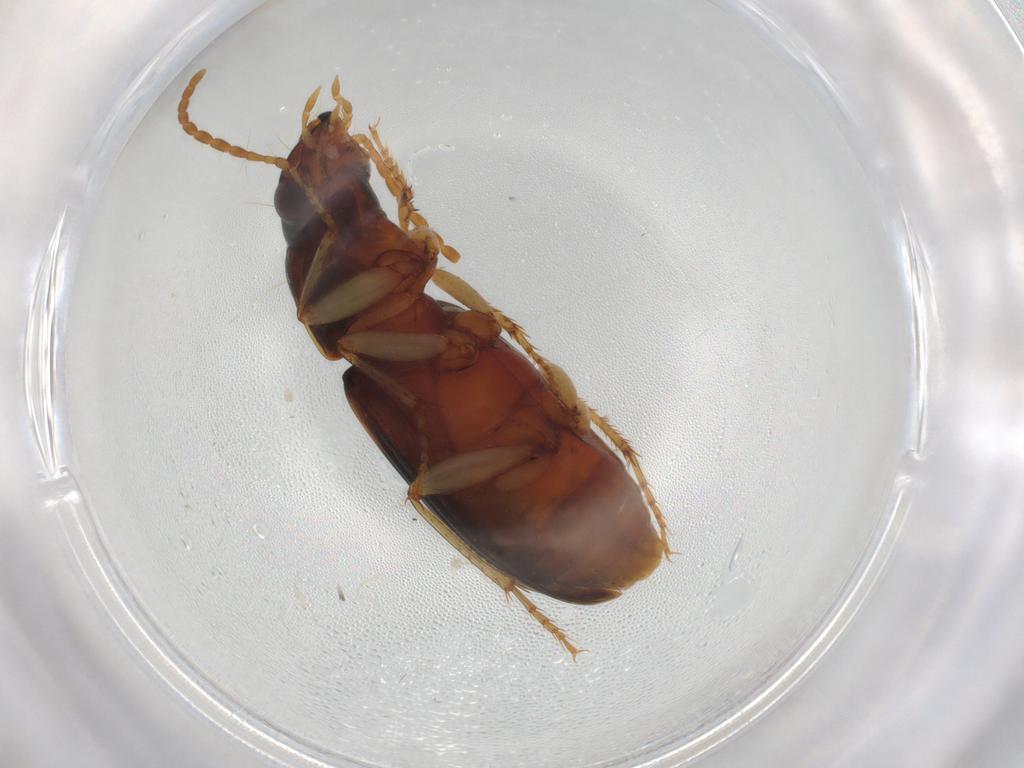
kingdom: Animalia
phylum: Arthropoda
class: Insecta
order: Coleoptera
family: Carabidae
